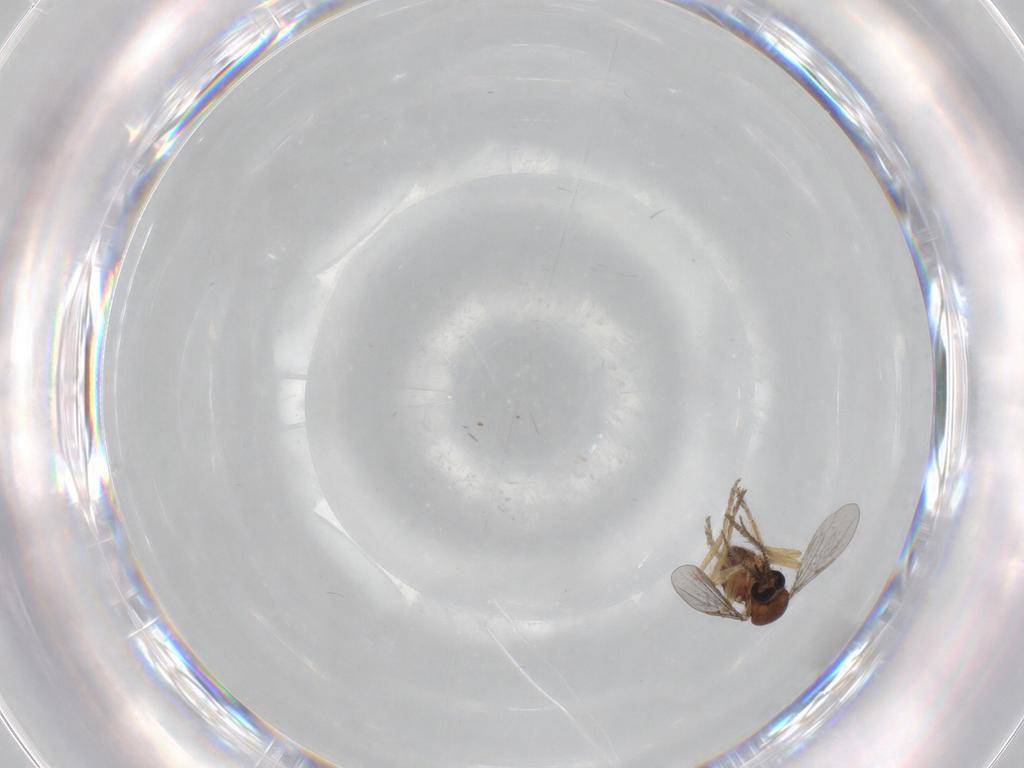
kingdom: Animalia
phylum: Arthropoda
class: Insecta
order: Diptera
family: Ceratopogonidae
